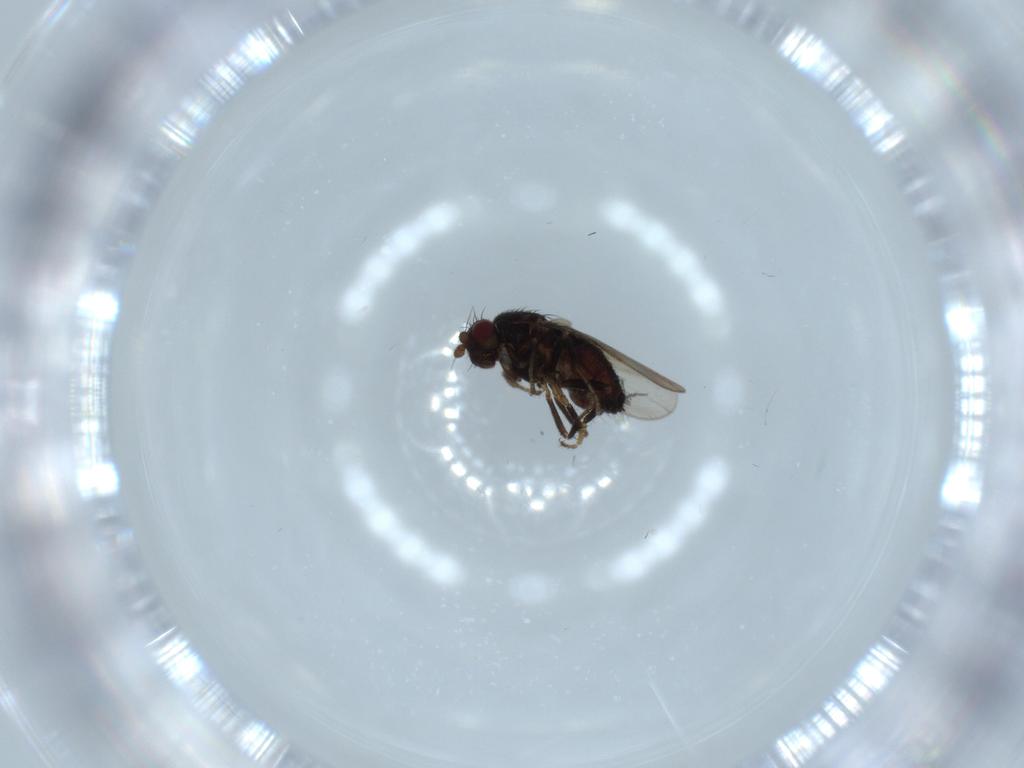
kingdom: Animalia
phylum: Arthropoda
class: Insecta
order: Diptera
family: Sphaeroceridae
